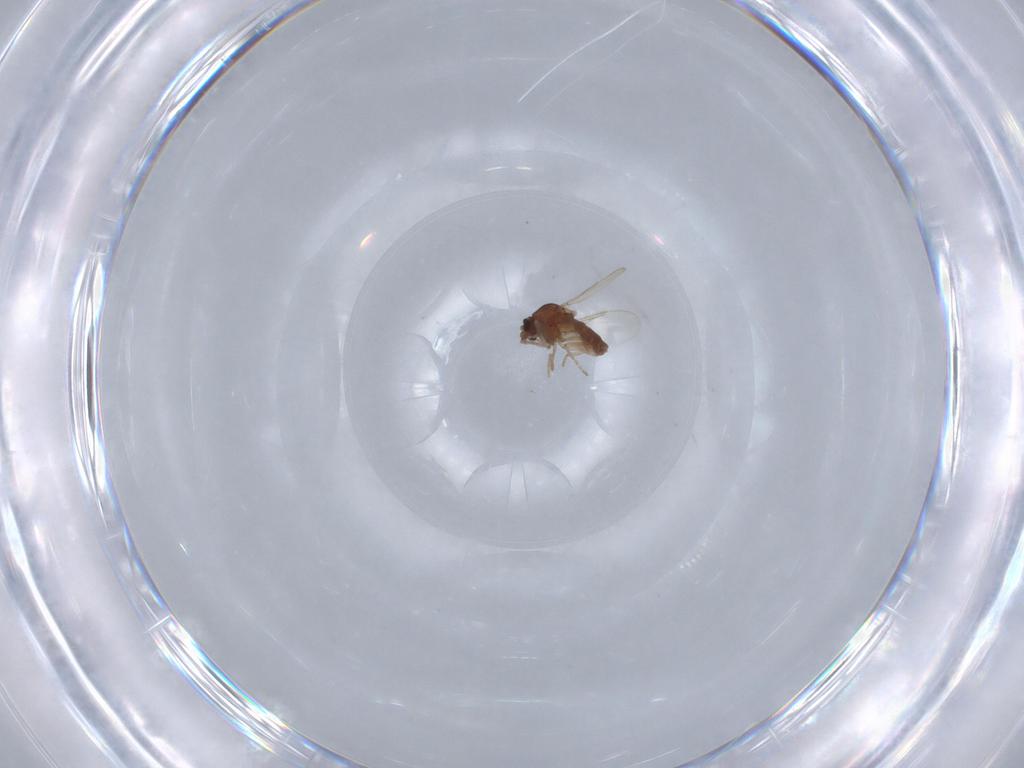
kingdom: Animalia
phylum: Arthropoda
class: Insecta
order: Diptera
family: Ceratopogonidae
